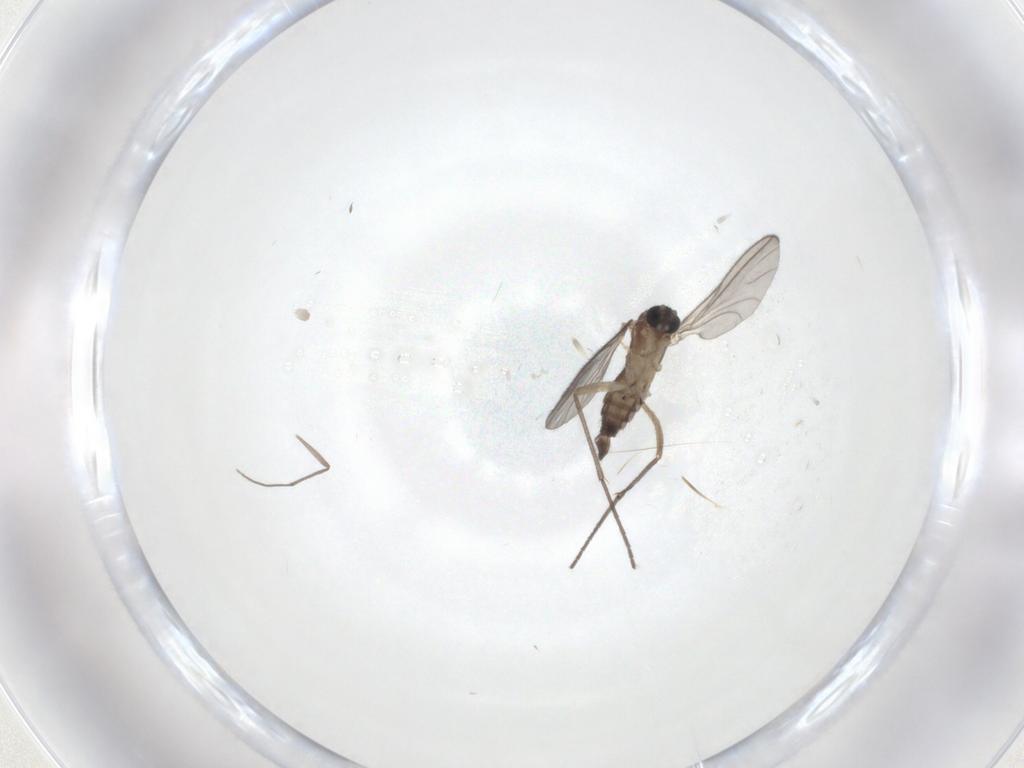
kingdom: Animalia
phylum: Arthropoda
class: Insecta
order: Diptera
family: Sciaridae
